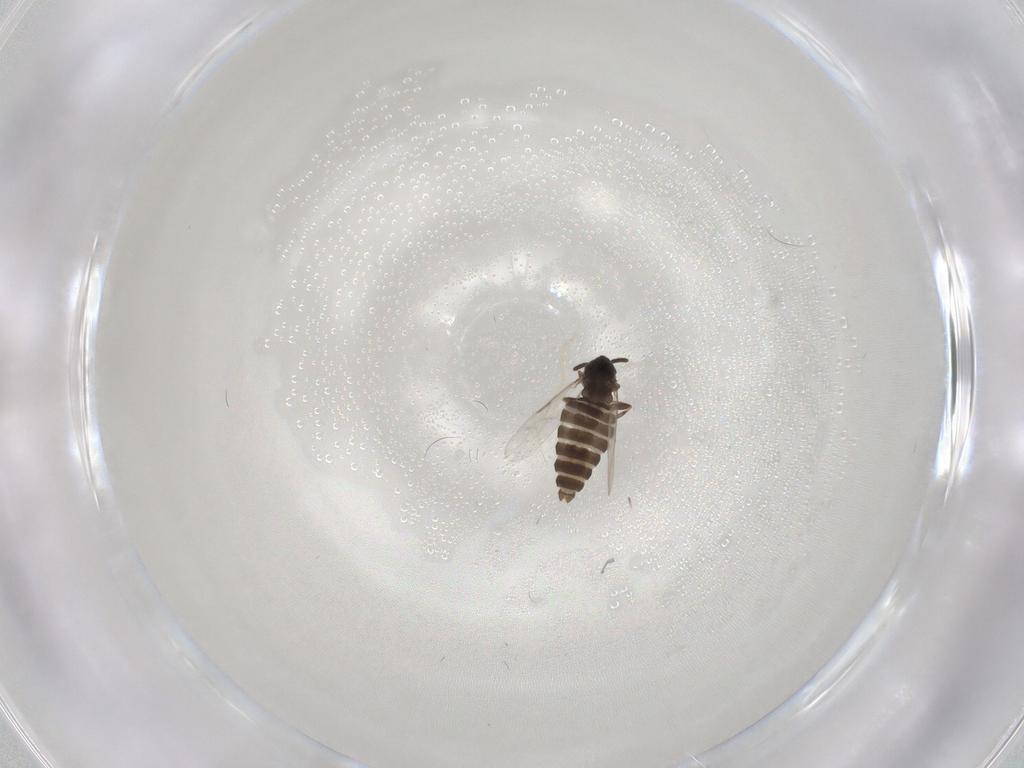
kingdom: Animalia
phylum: Arthropoda
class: Insecta
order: Diptera
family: Scatopsidae
